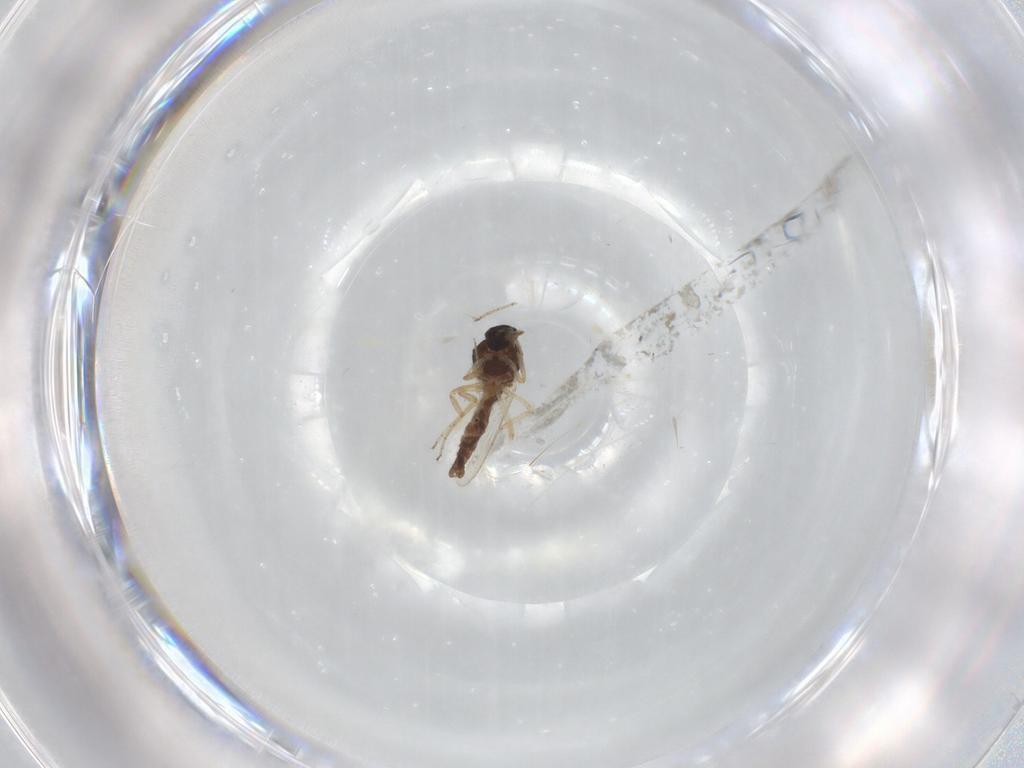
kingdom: Animalia
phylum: Arthropoda
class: Insecta
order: Diptera
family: Ceratopogonidae
